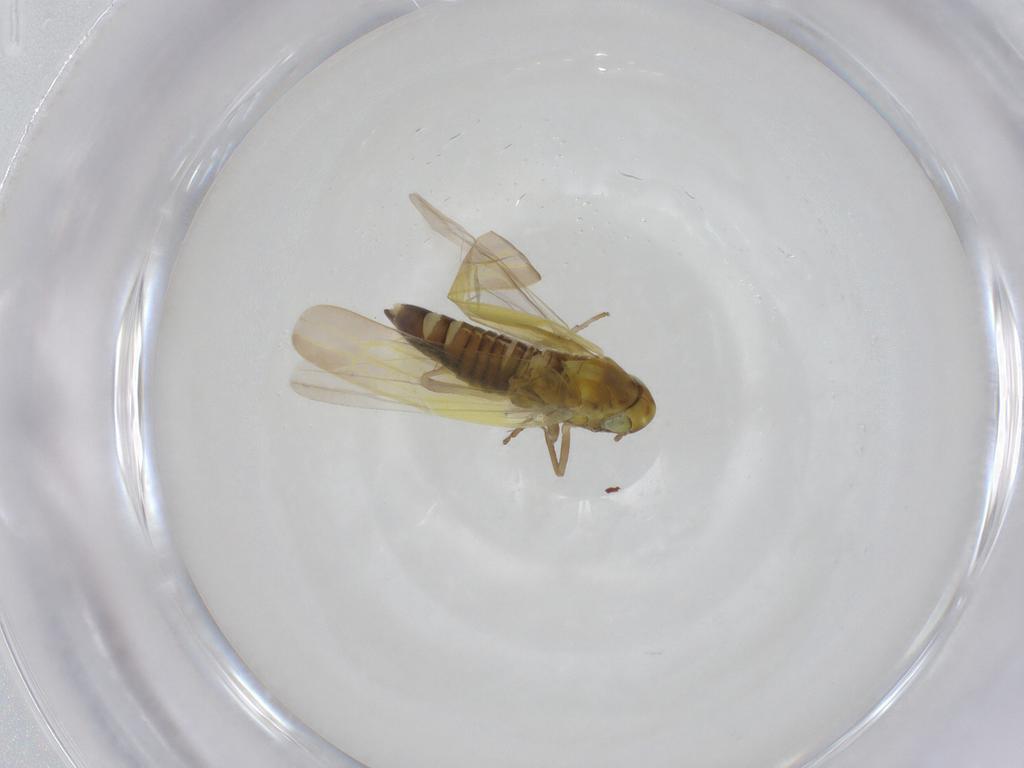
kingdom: Animalia
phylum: Arthropoda
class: Insecta
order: Hemiptera
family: Cicadellidae
